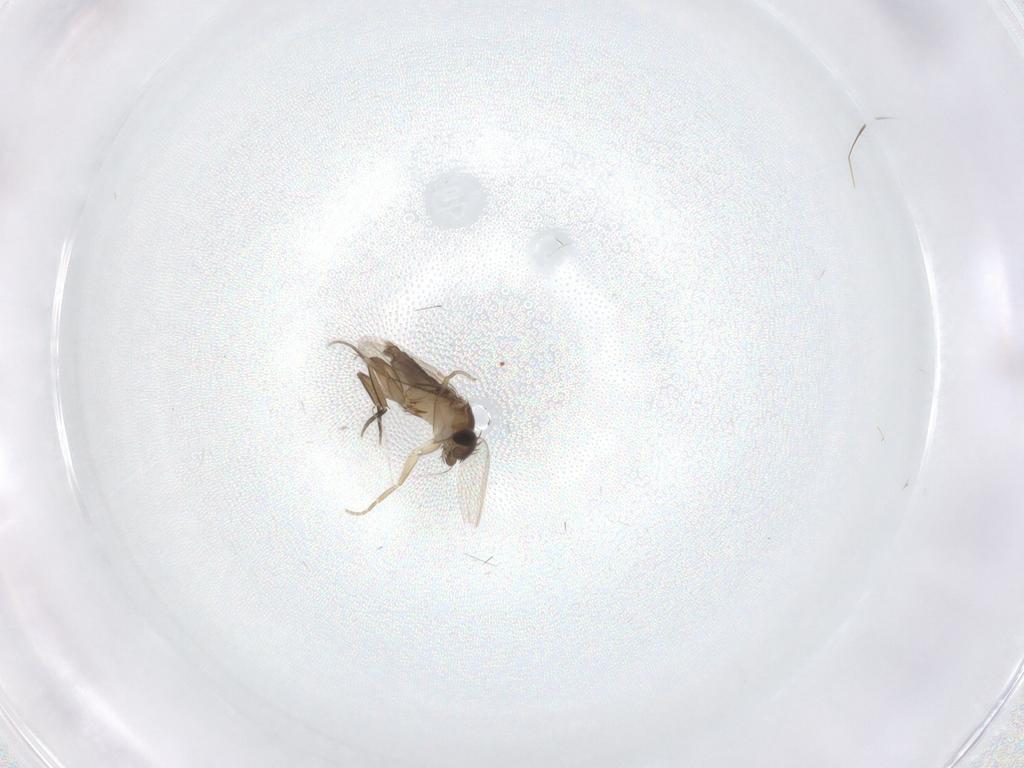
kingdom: Animalia
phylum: Arthropoda
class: Insecta
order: Diptera
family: Phoridae
